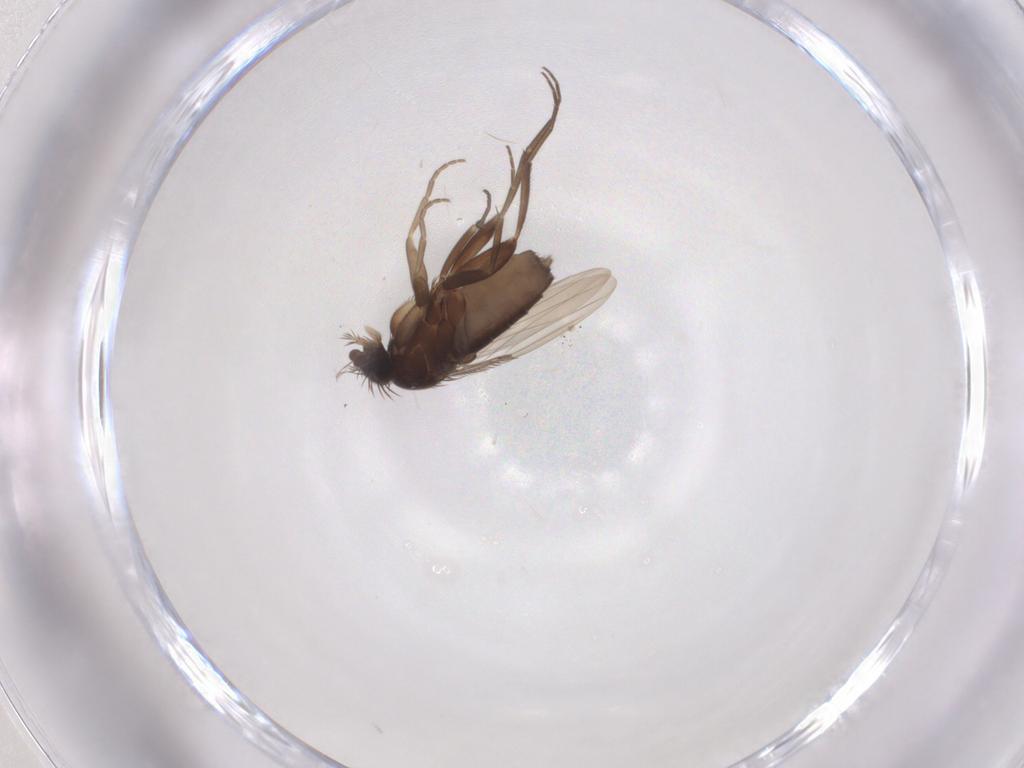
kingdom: Animalia
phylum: Arthropoda
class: Insecta
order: Diptera
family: Phoridae
